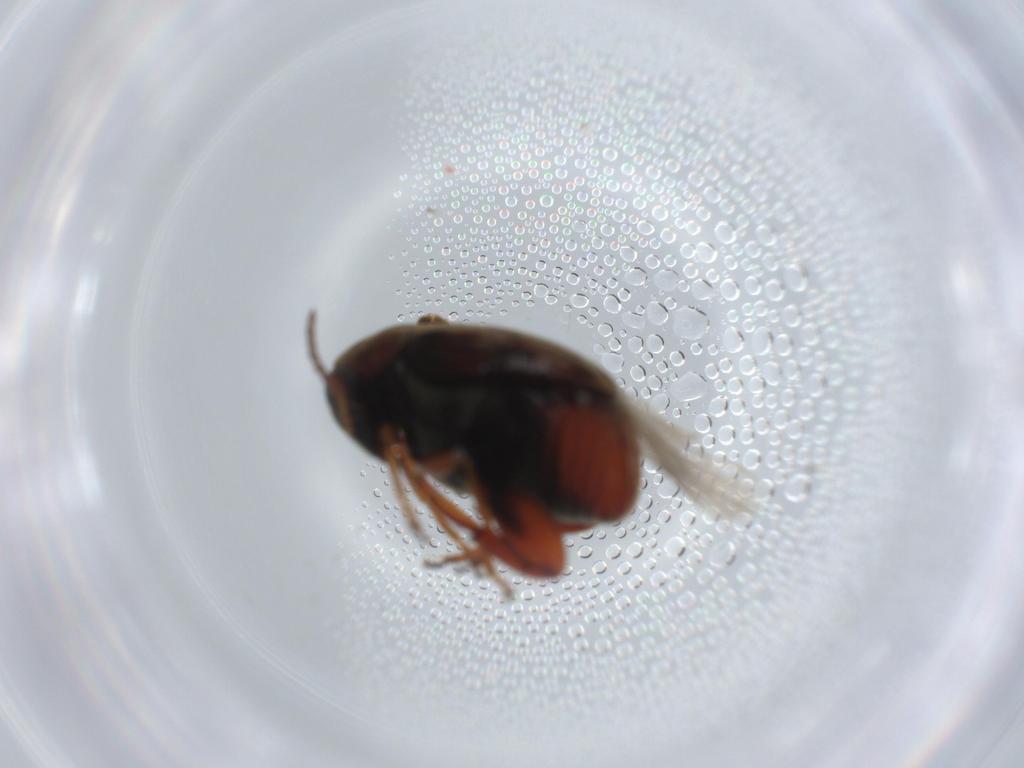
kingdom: Animalia
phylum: Arthropoda
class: Insecta
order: Coleoptera
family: Chrysomelidae
